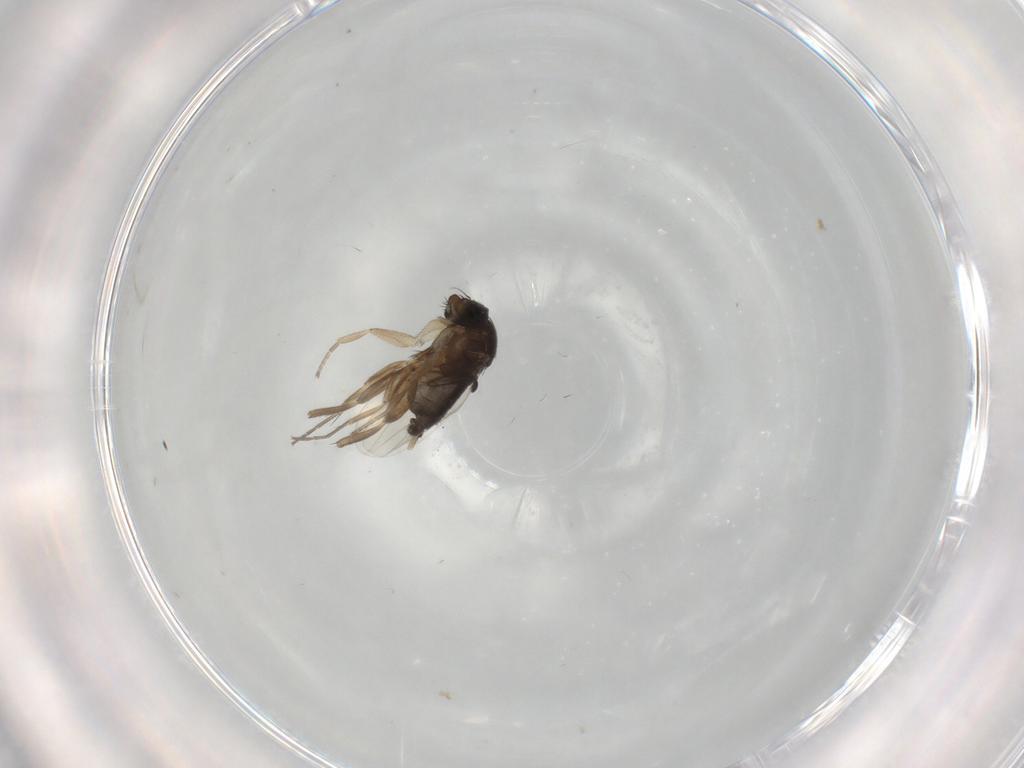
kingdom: Animalia
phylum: Arthropoda
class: Insecta
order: Diptera
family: Phoridae
